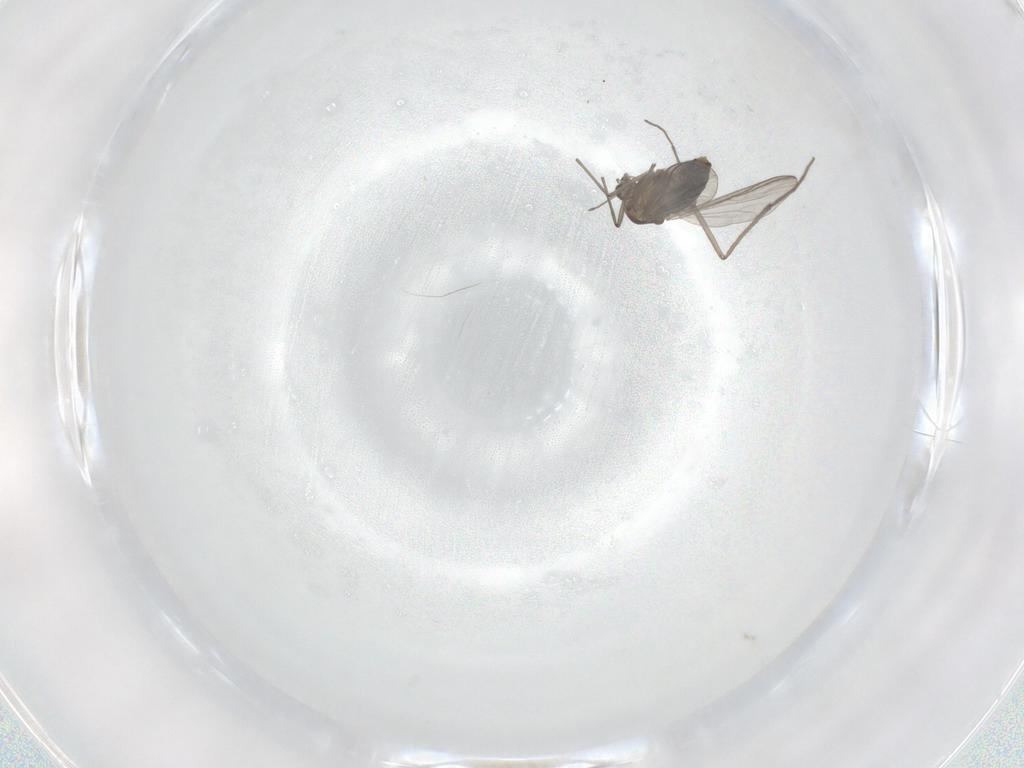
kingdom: Animalia
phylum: Arthropoda
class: Insecta
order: Diptera
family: Chironomidae
